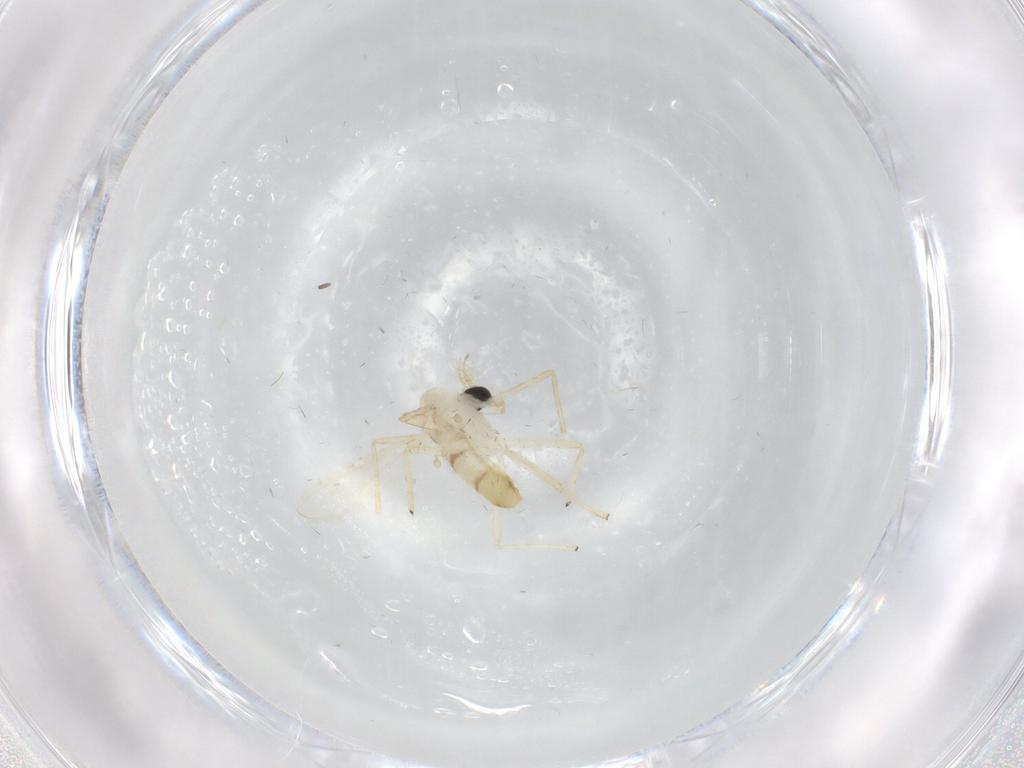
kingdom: Animalia
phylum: Arthropoda
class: Insecta
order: Diptera
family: Chironomidae
